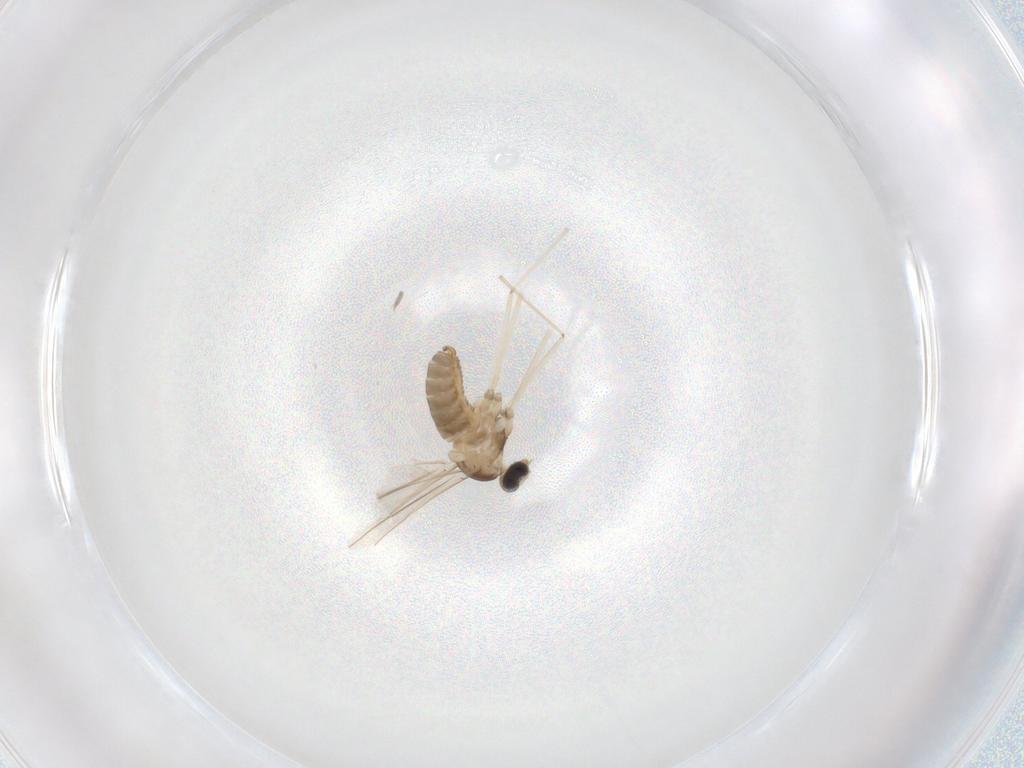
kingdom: Animalia
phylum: Arthropoda
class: Insecta
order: Diptera
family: Cecidomyiidae
